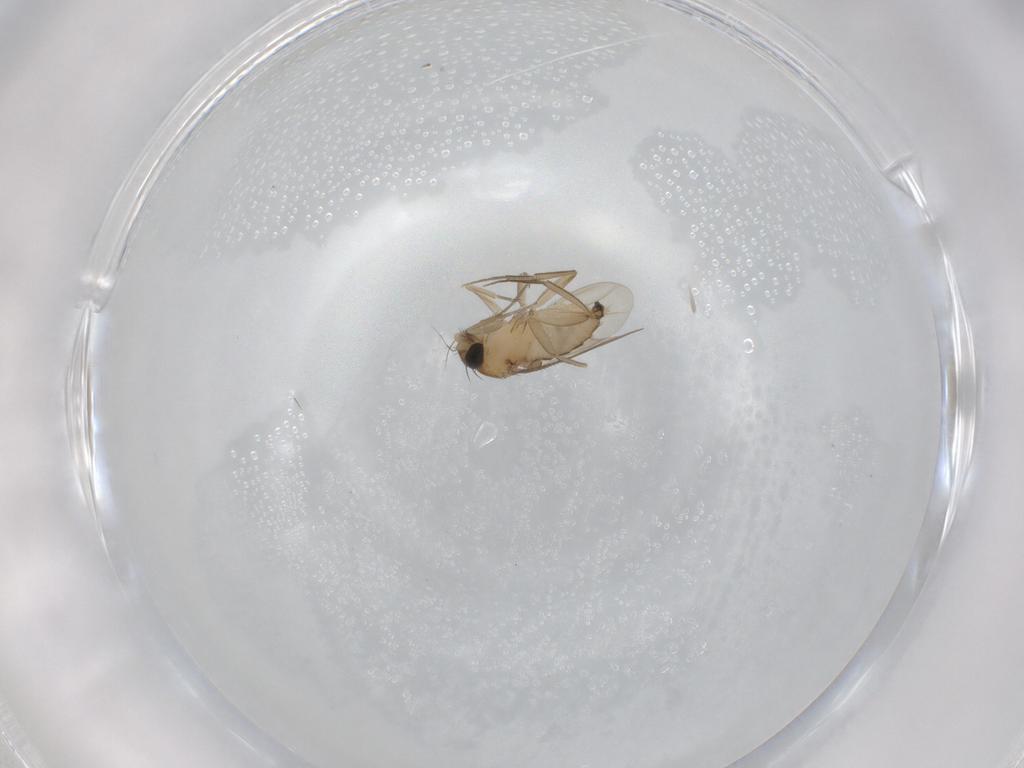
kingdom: Animalia
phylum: Arthropoda
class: Insecta
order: Diptera
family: Phoridae
